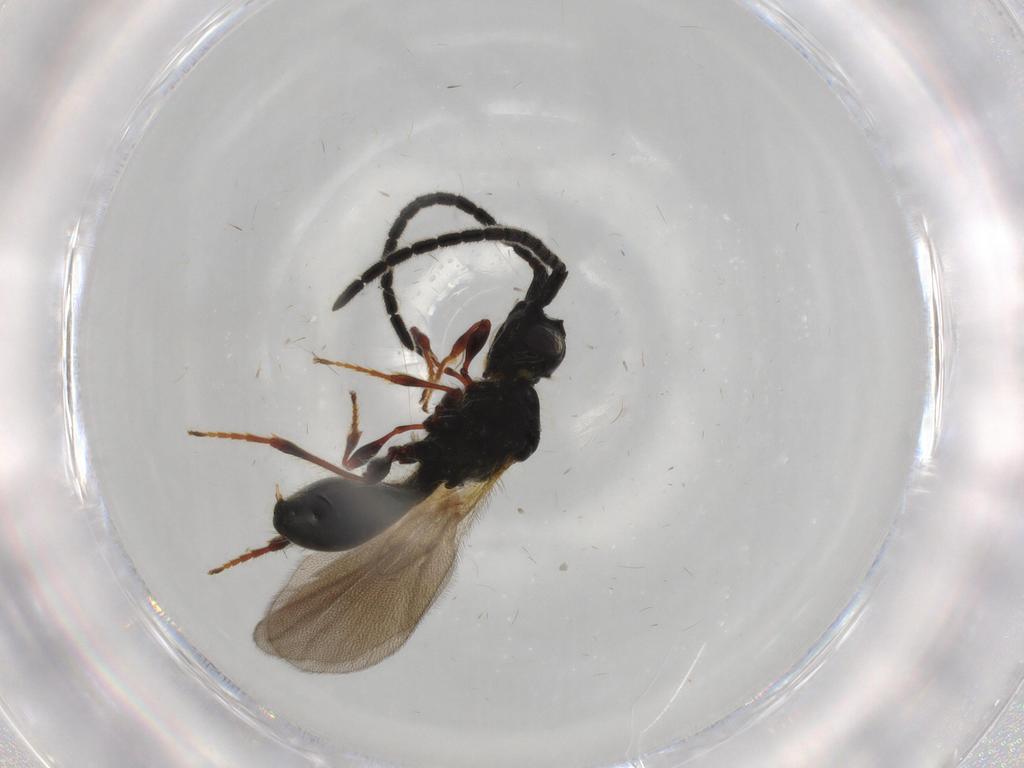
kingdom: Animalia
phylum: Arthropoda
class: Insecta
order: Hymenoptera
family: Diapriidae
